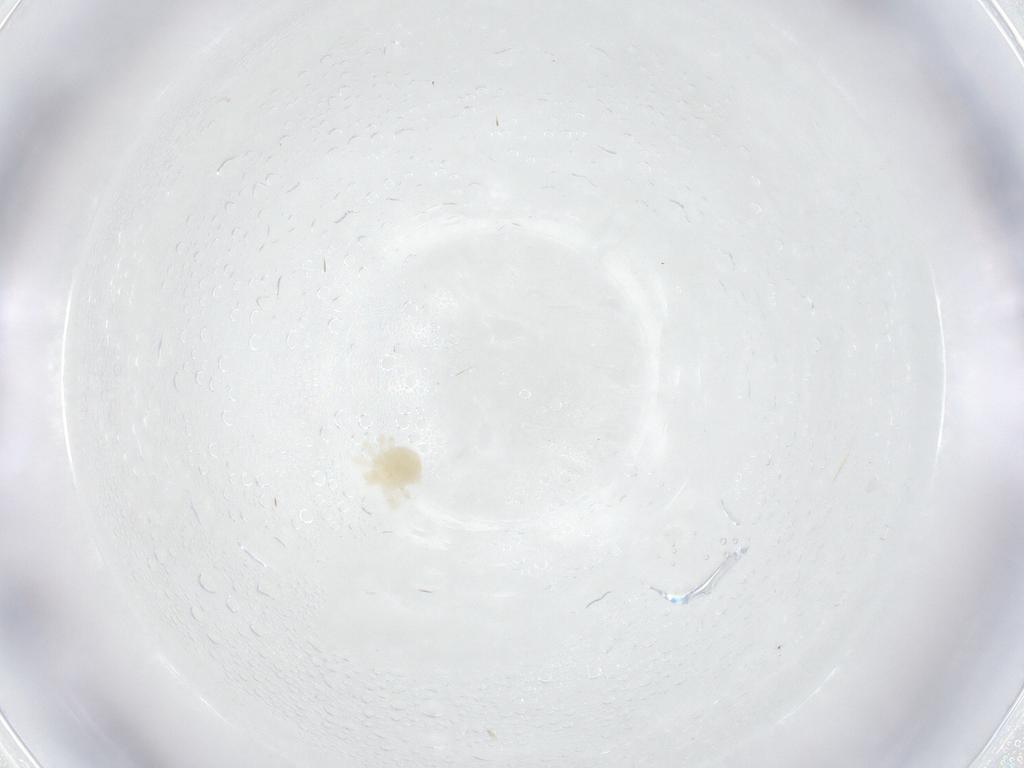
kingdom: Animalia
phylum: Arthropoda
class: Arachnida
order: Trombidiformes
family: Anystidae
